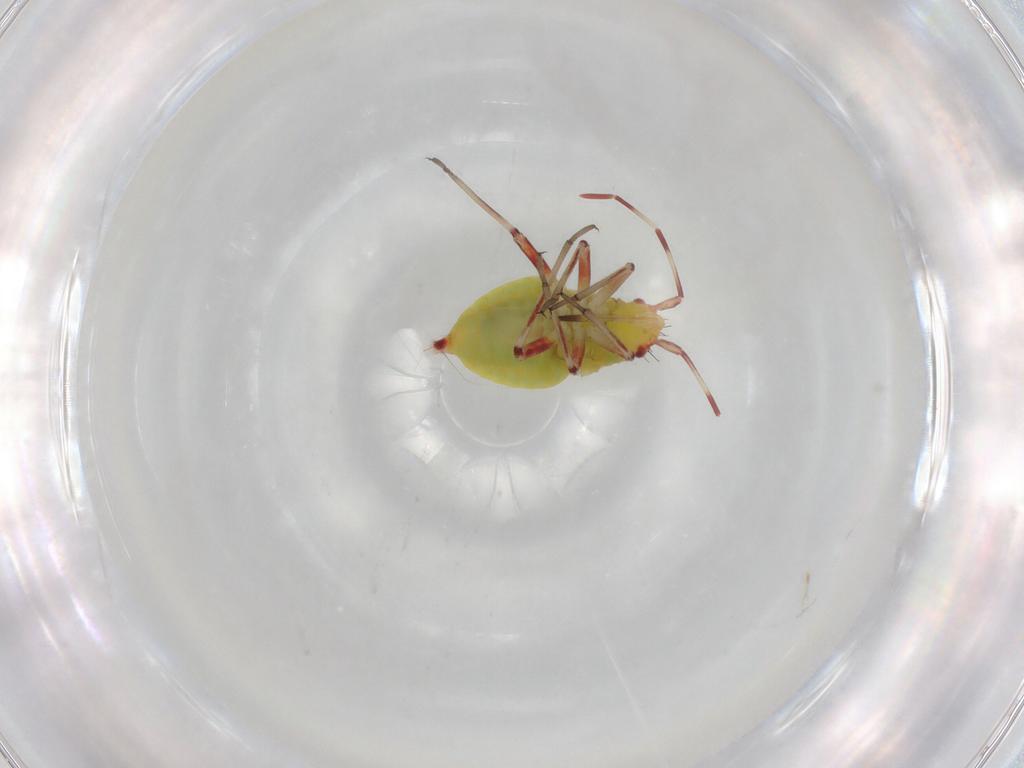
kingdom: Animalia
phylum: Arthropoda
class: Insecta
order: Hemiptera
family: Miridae
